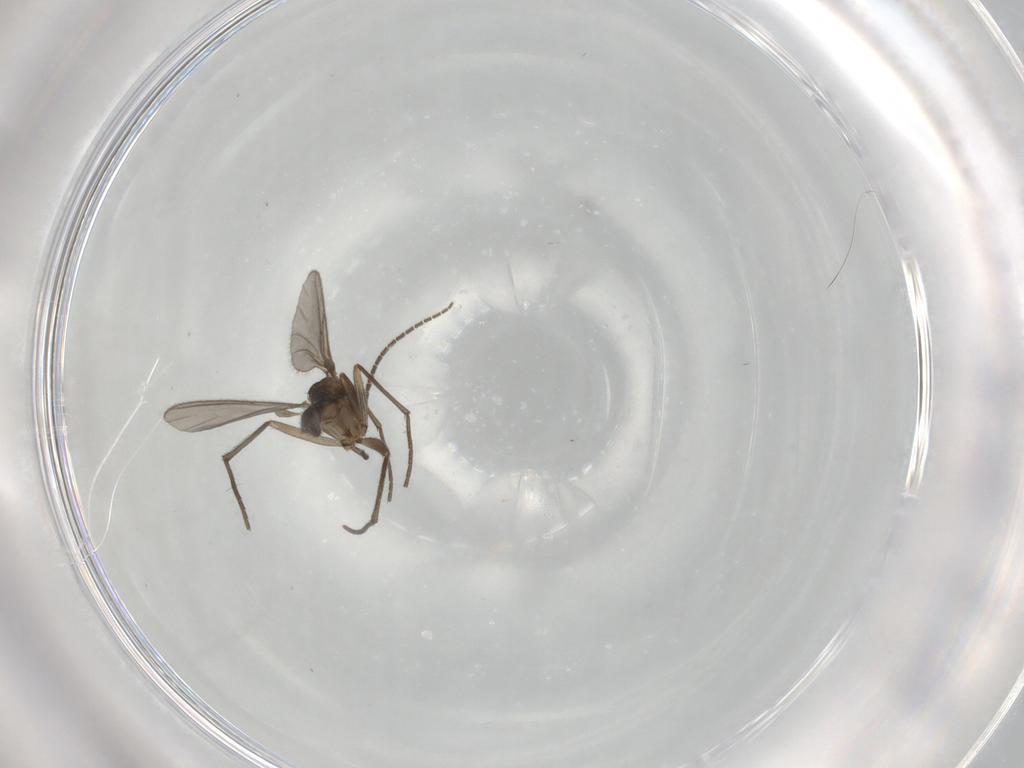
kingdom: Animalia
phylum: Arthropoda
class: Insecta
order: Diptera
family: Sciaridae
